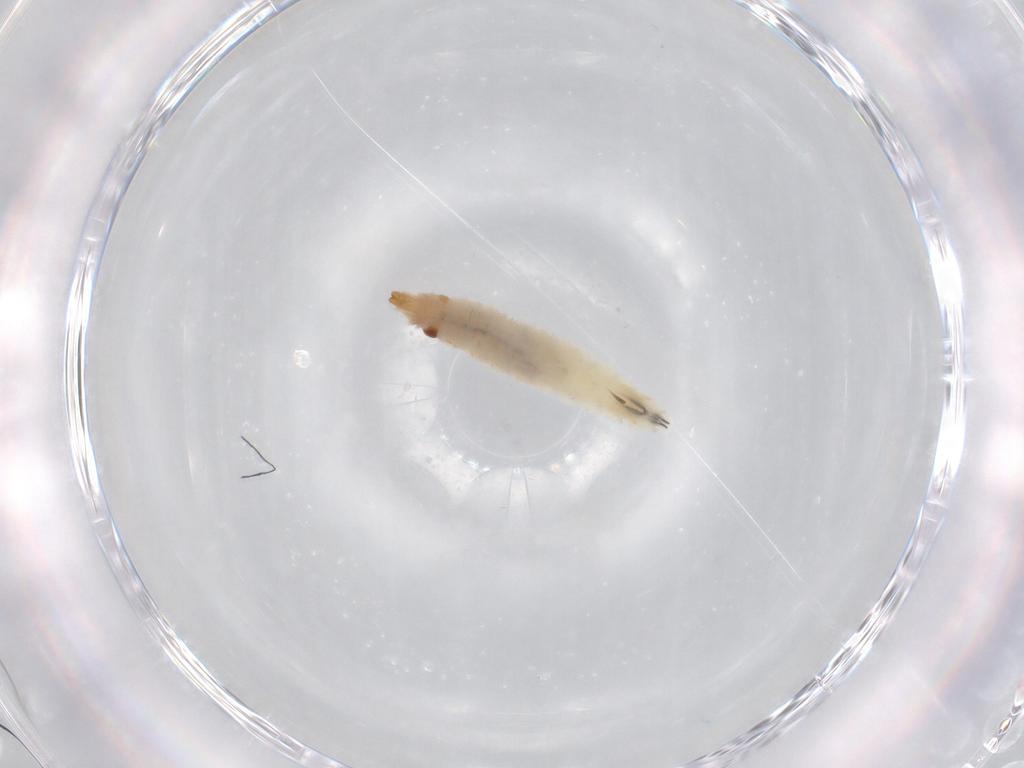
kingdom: Animalia
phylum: Arthropoda
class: Insecta
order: Diptera
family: Drosophilidae
